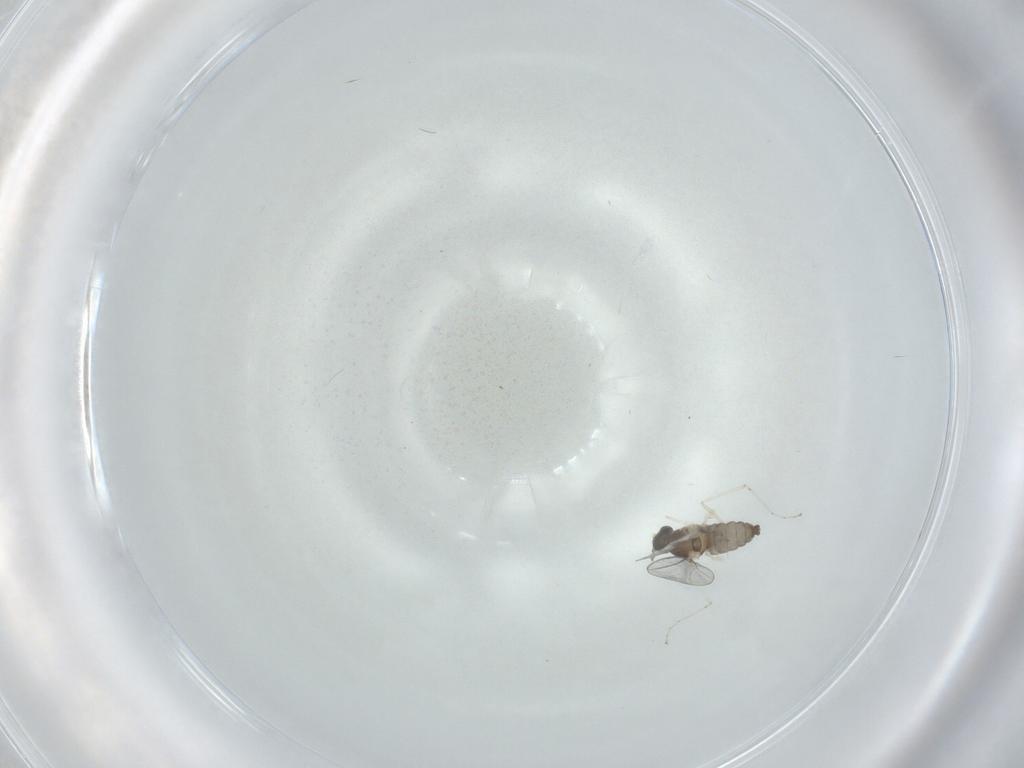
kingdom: Animalia
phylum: Arthropoda
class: Insecta
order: Diptera
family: Cecidomyiidae
